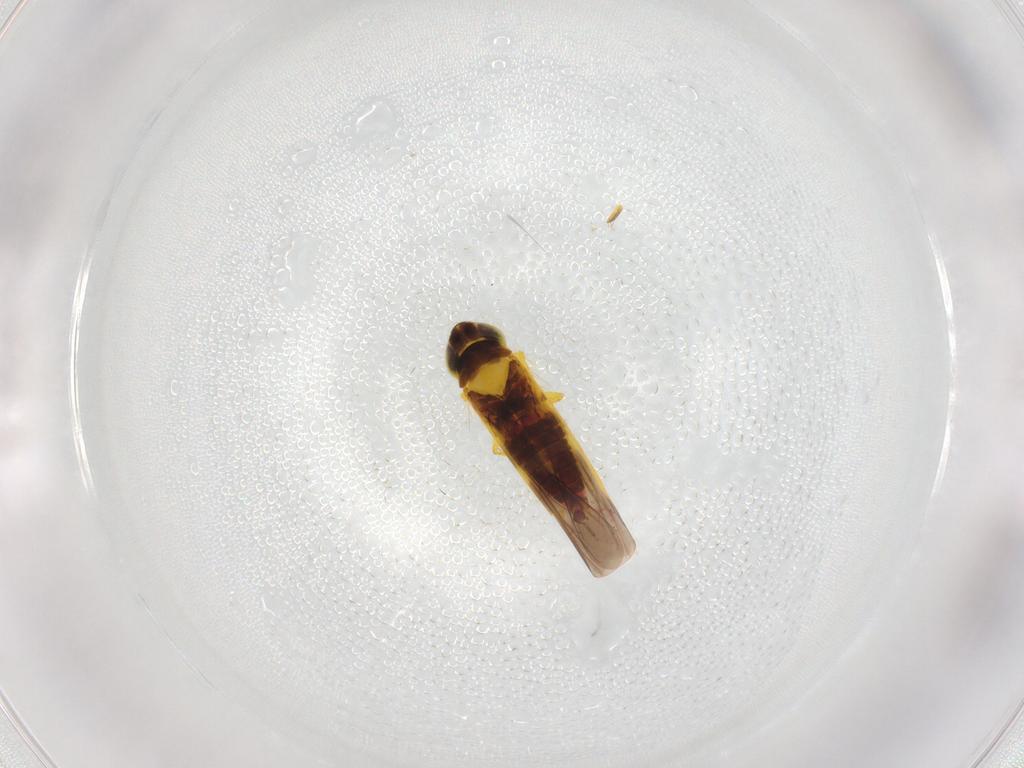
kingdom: Animalia
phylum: Arthropoda
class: Insecta
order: Hemiptera
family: Cicadellidae
